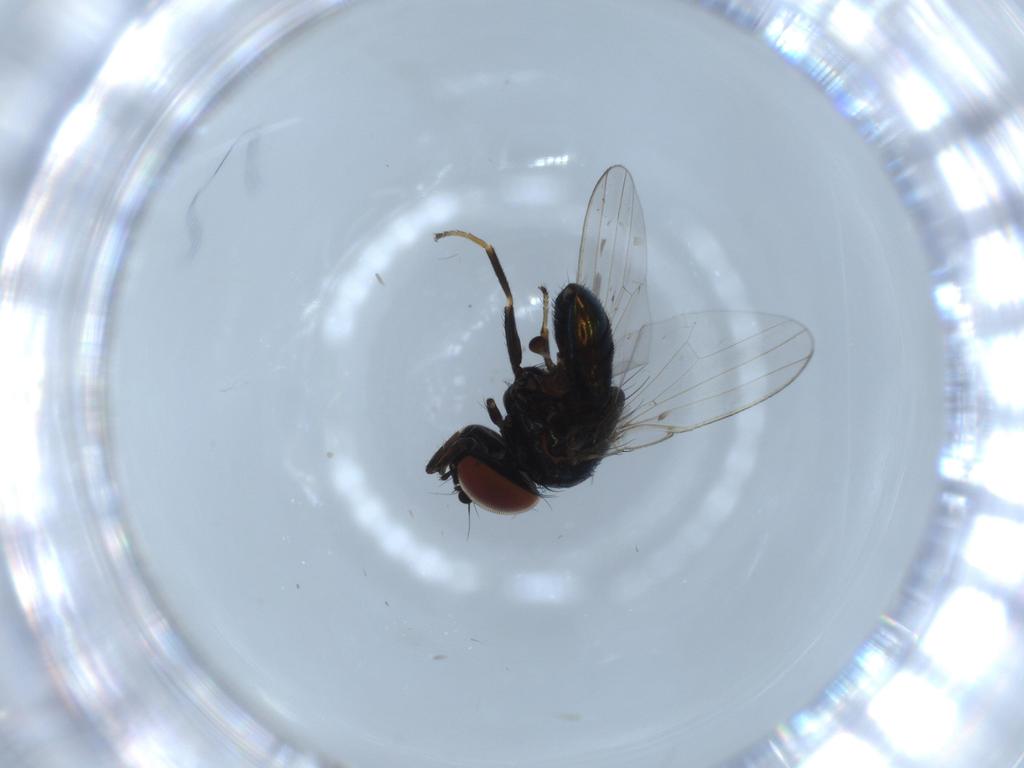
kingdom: Animalia
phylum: Arthropoda
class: Insecta
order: Diptera
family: Milichiidae
